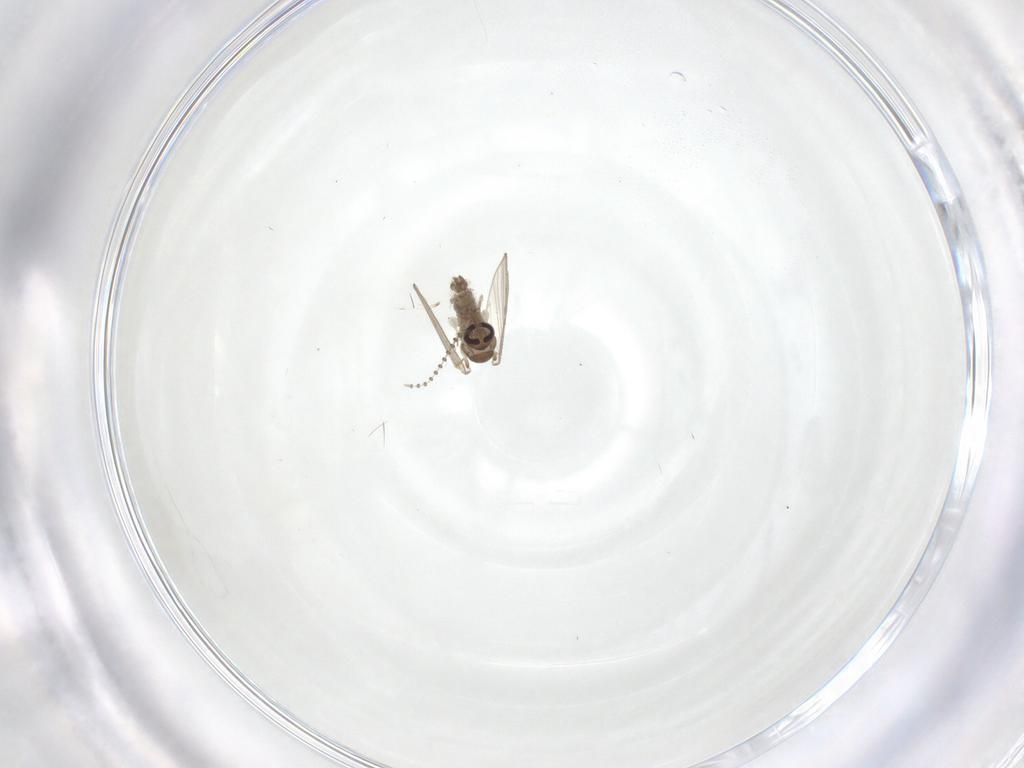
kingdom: Animalia
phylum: Arthropoda
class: Insecta
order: Diptera
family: Psychodidae
